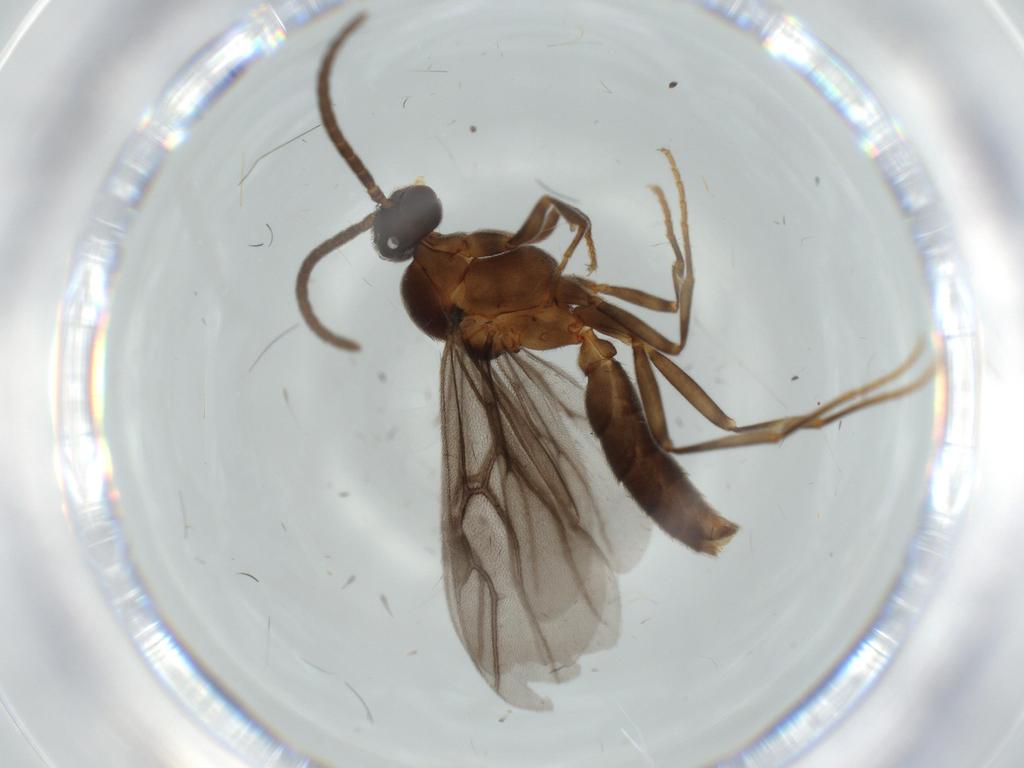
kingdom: Animalia
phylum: Arthropoda
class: Insecta
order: Hymenoptera
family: Formicidae
